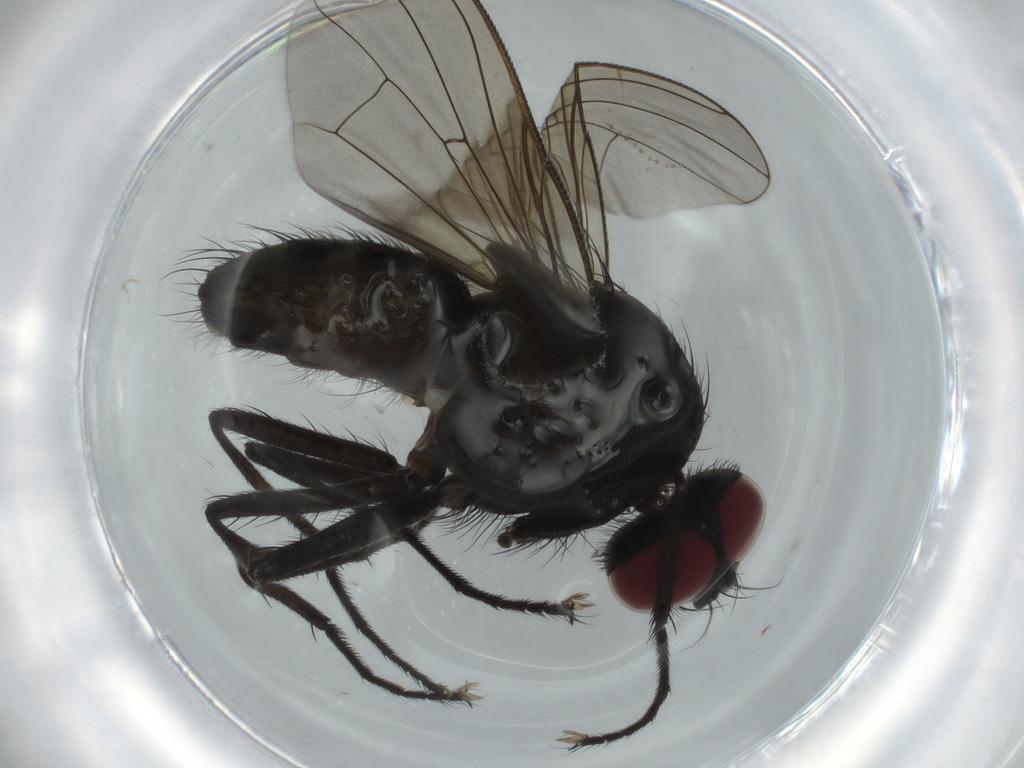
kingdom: Animalia
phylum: Arthropoda
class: Insecta
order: Diptera
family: Muscidae
